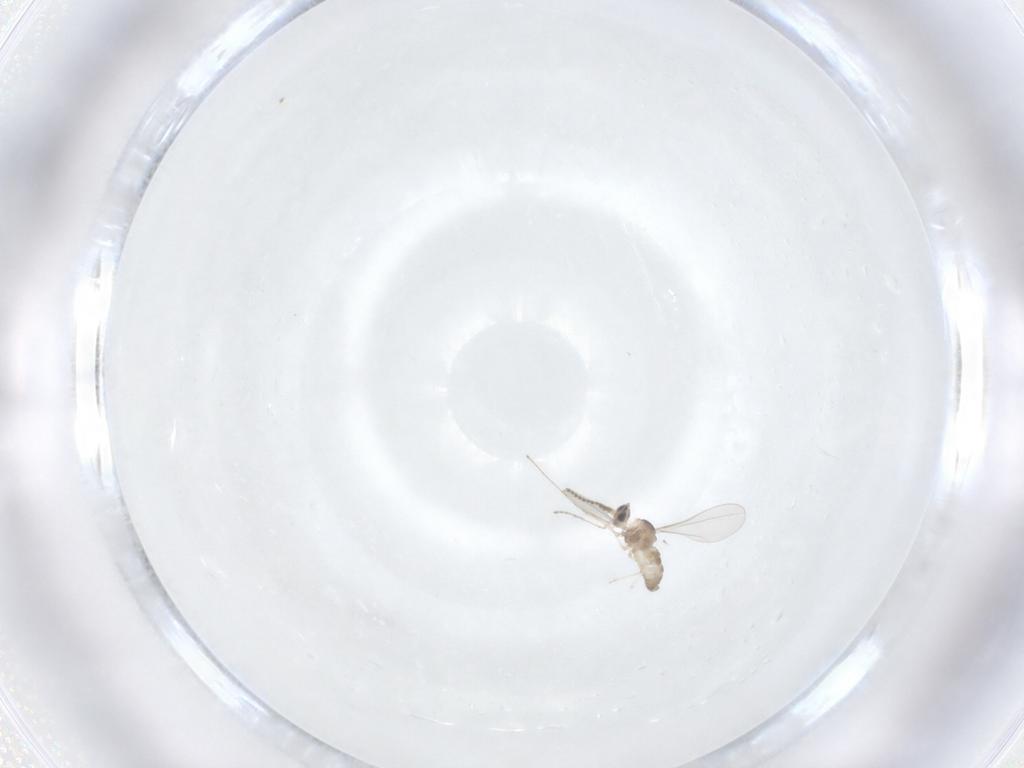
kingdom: Animalia
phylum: Arthropoda
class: Insecta
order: Diptera
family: Cecidomyiidae
